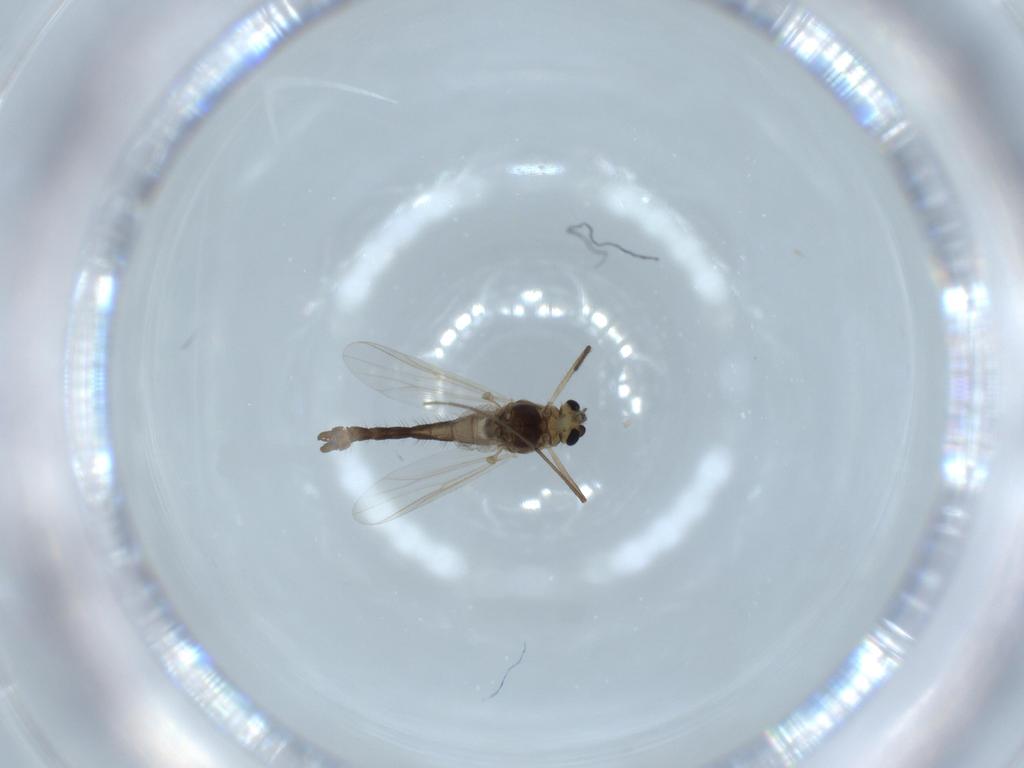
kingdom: Animalia
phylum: Arthropoda
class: Insecta
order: Diptera
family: Chironomidae
